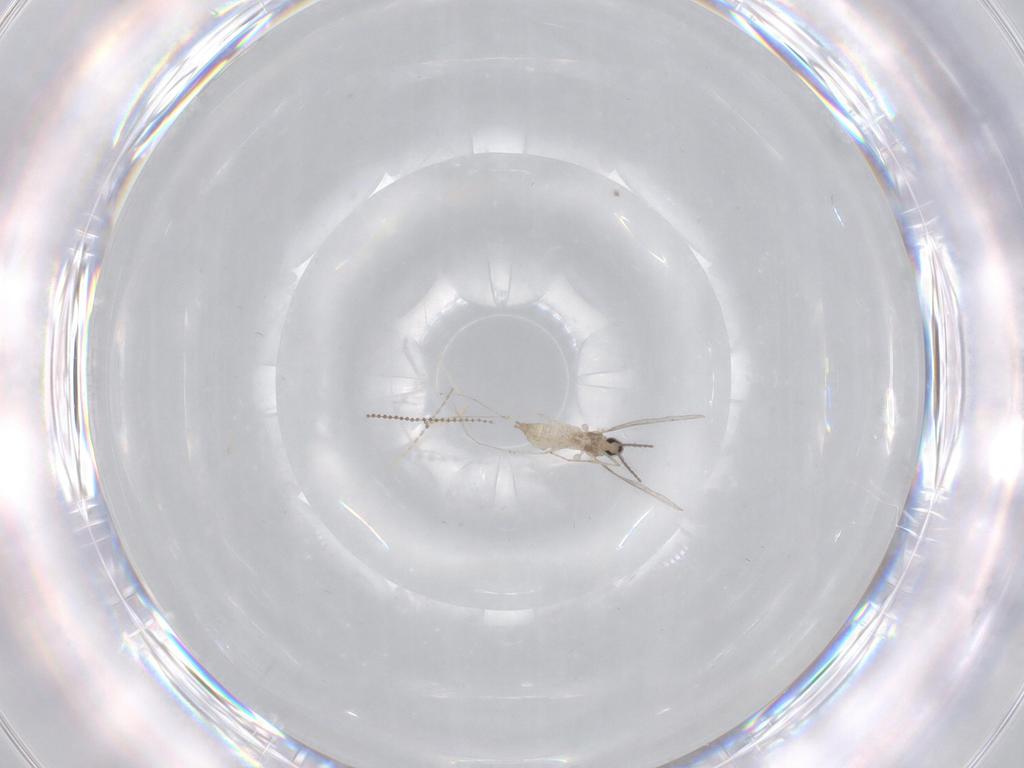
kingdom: Animalia
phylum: Arthropoda
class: Insecta
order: Diptera
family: Cecidomyiidae
